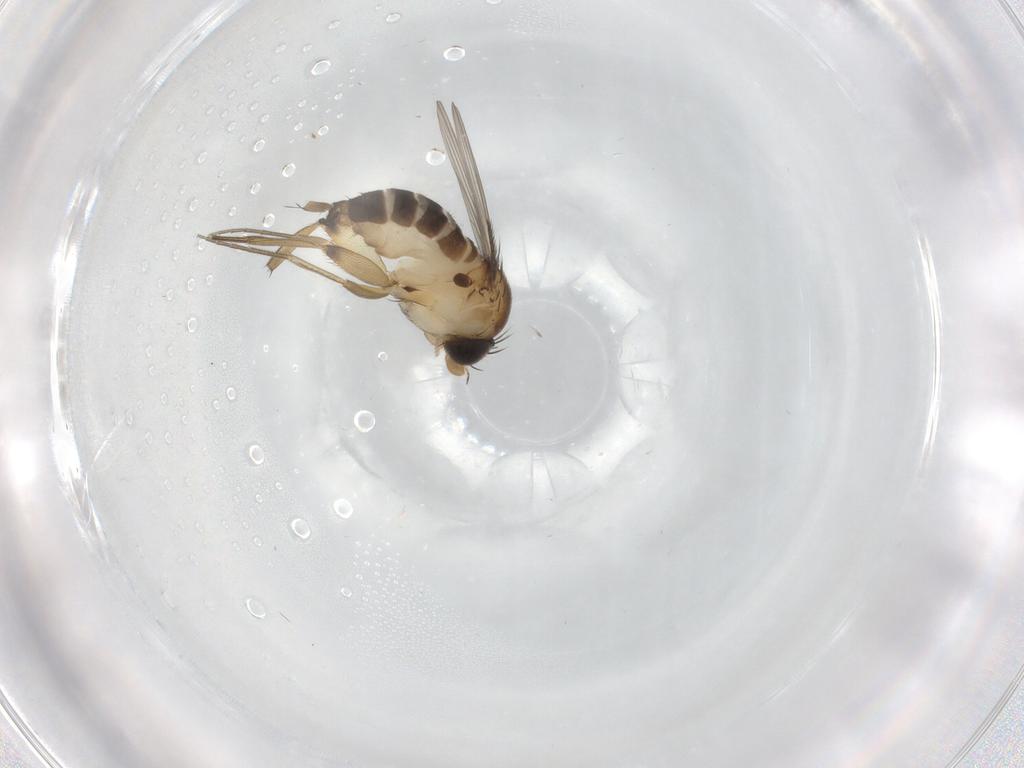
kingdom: Animalia
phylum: Arthropoda
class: Insecta
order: Diptera
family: Phoridae
